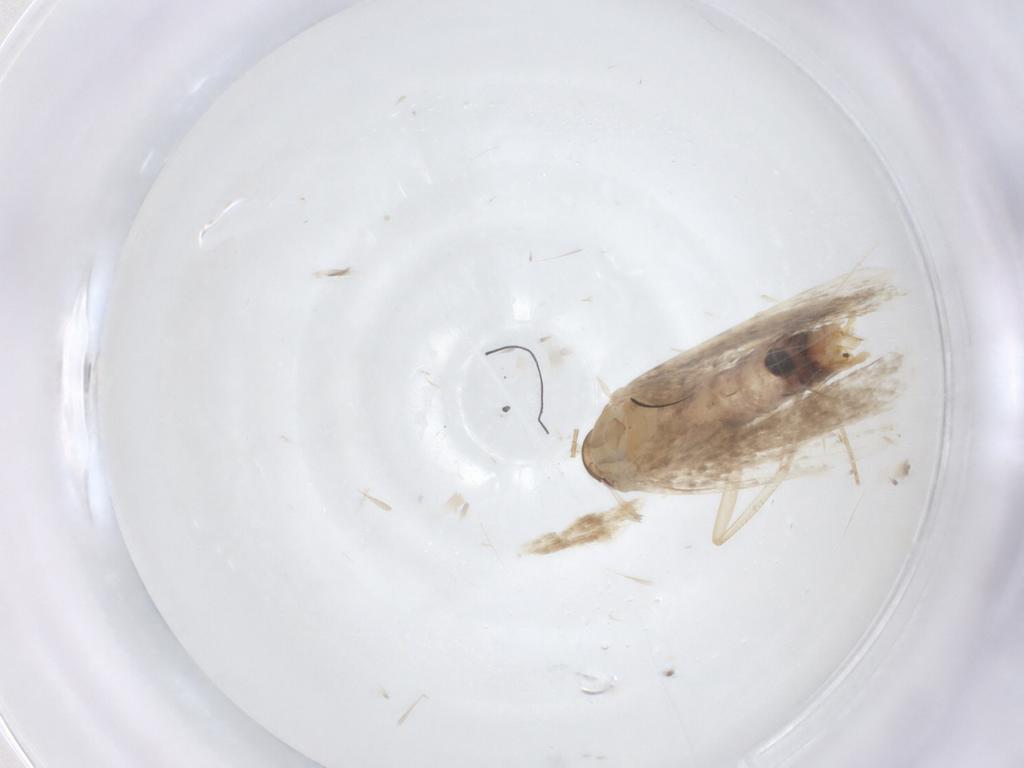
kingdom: Animalia
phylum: Arthropoda
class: Insecta
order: Lepidoptera
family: Gelechiidae
